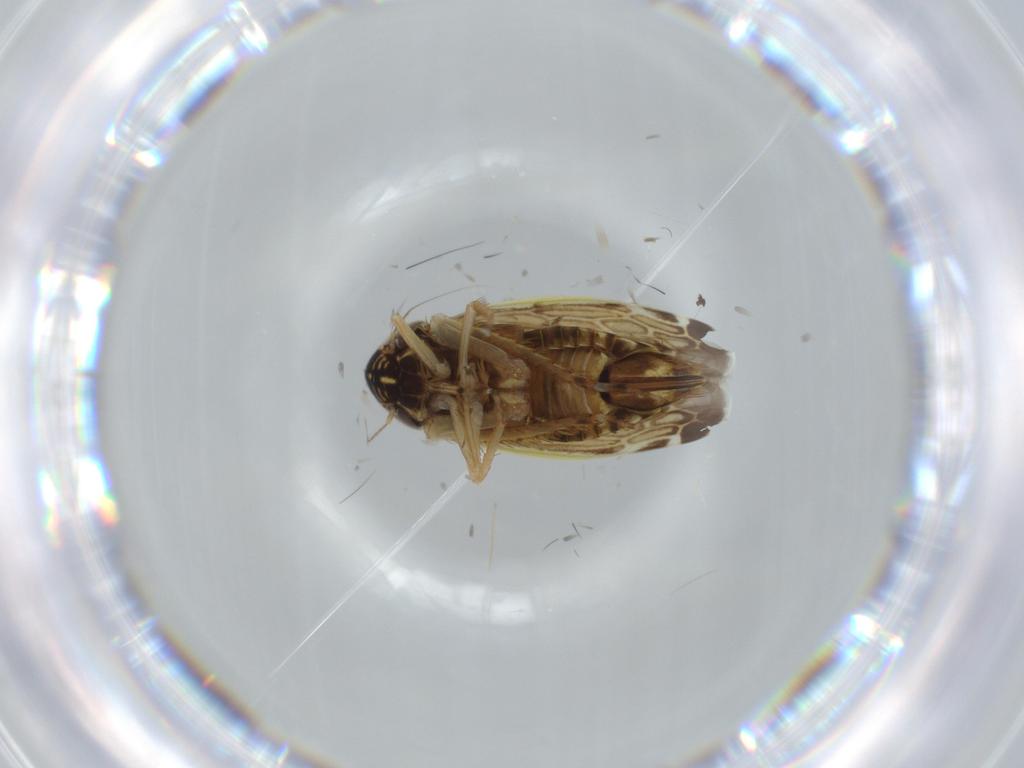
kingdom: Animalia
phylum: Arthropoda
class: Insecta
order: Hemiptera
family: Cicadellidae
